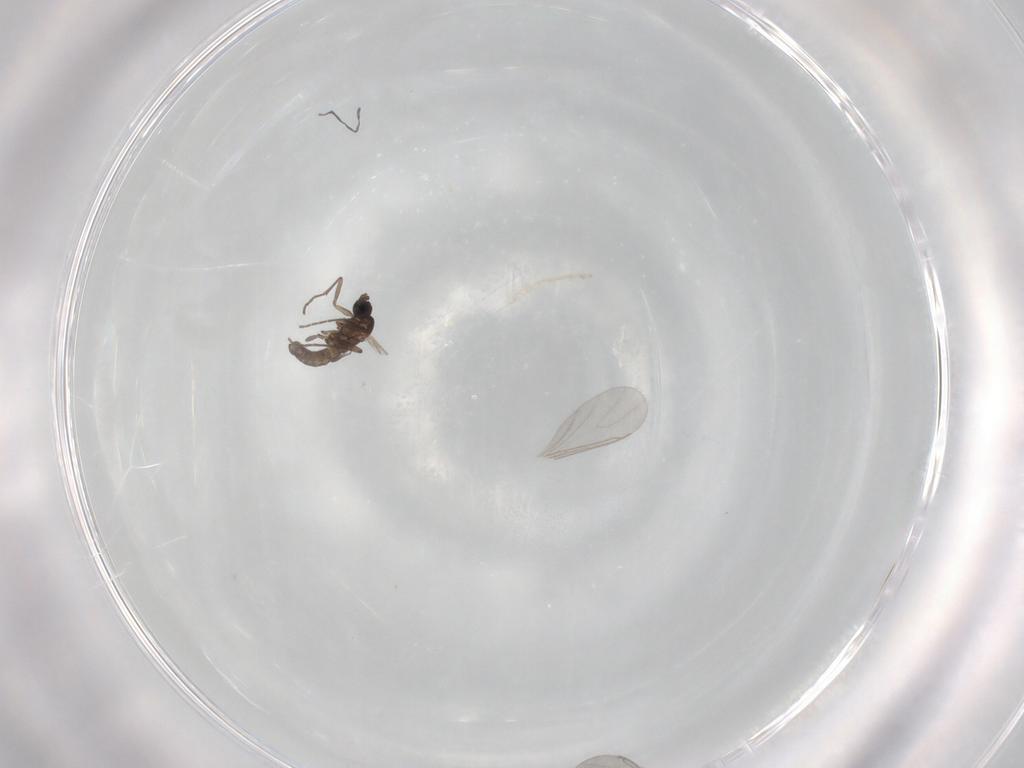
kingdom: Animalia
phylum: Arthropoda
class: Insecta
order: Diptera
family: Sciaridae
